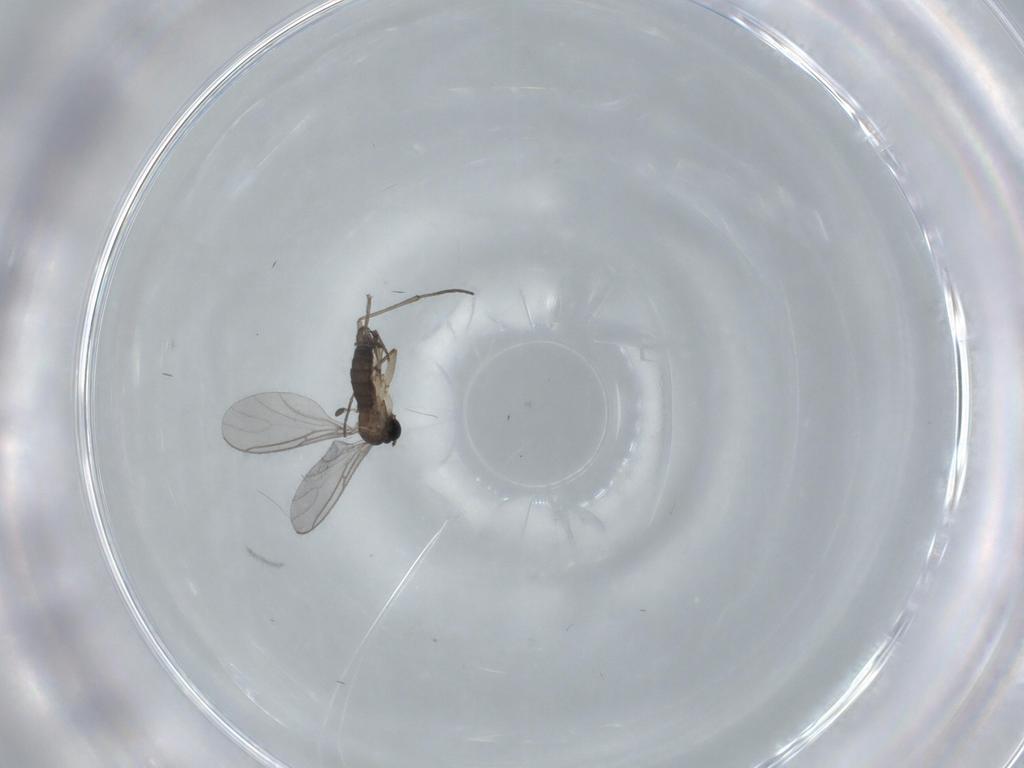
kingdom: Animalia
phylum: Arthropoda
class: Insecta
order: Diptera
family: Sciaridae
